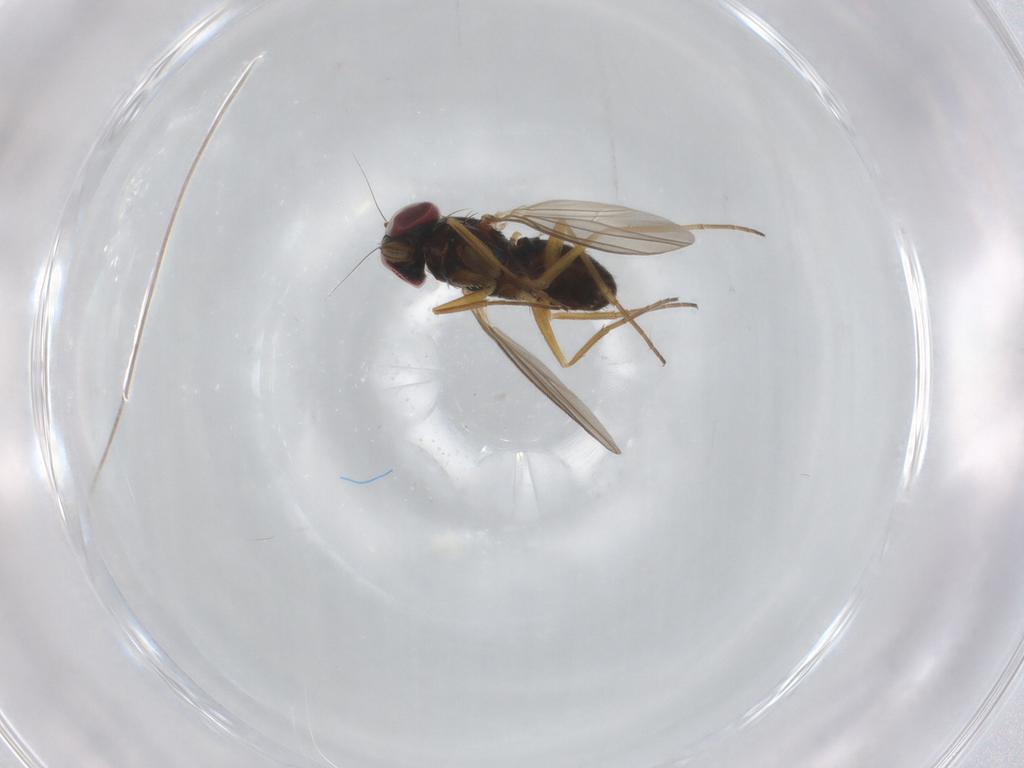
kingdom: Animalia
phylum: Arthropoda
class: Insecta
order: Diptera
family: Dolichopodidae
